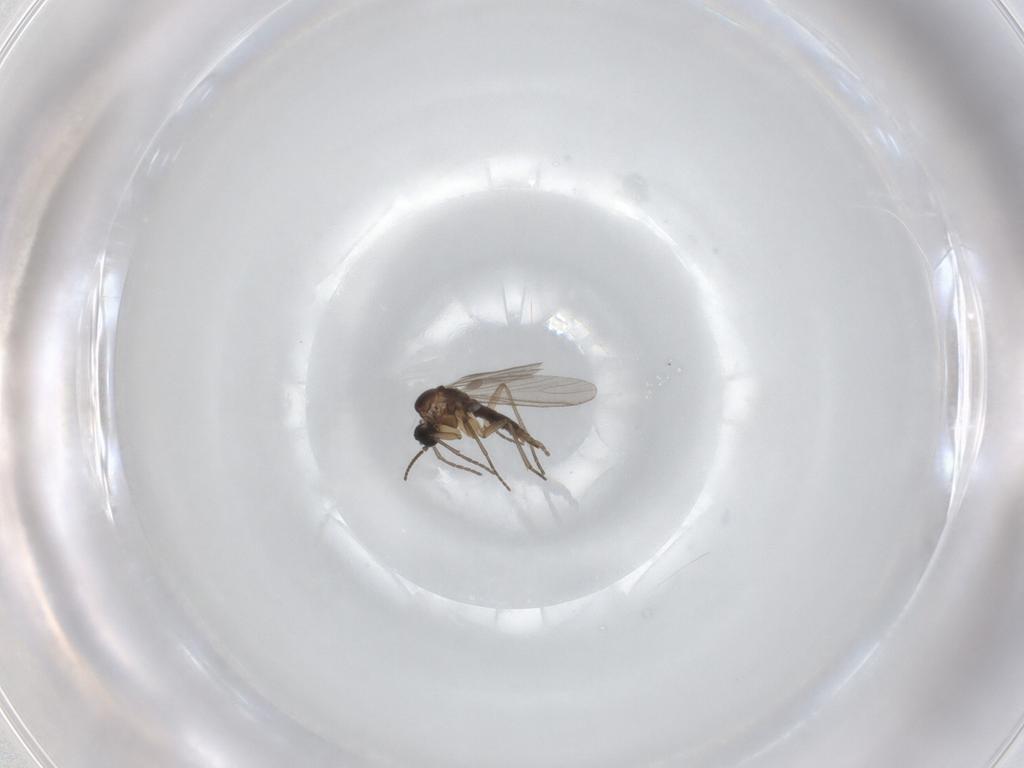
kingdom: Animalia
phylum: Arthropoda
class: Insecta
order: Diptera
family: Sciaridae
